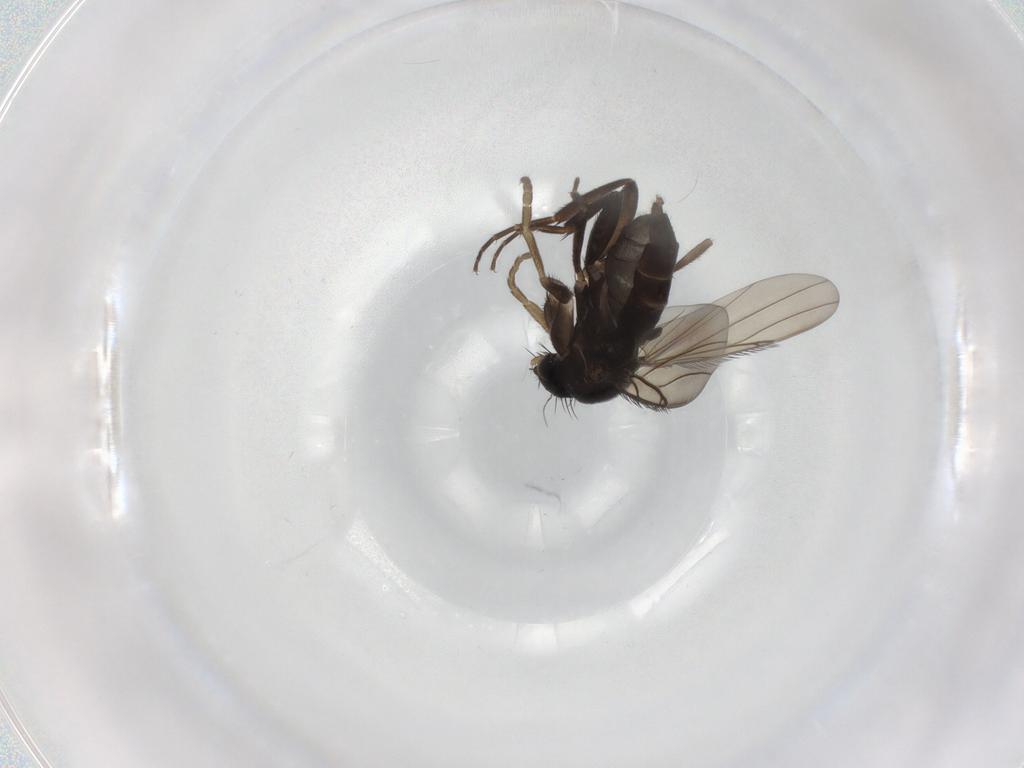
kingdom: Animalia
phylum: Arthropoda
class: Insecta
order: Diptera
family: Phoridae
